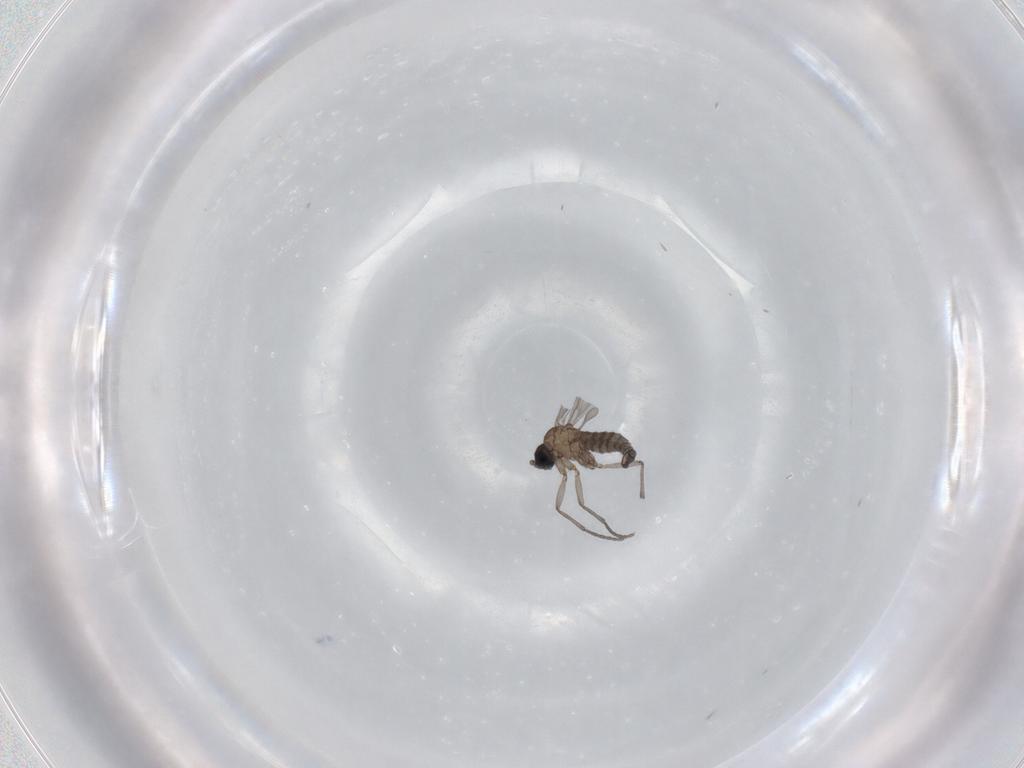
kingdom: Animalia
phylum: Arthropoda
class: Insecta
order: Diptera
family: Sciaridae
